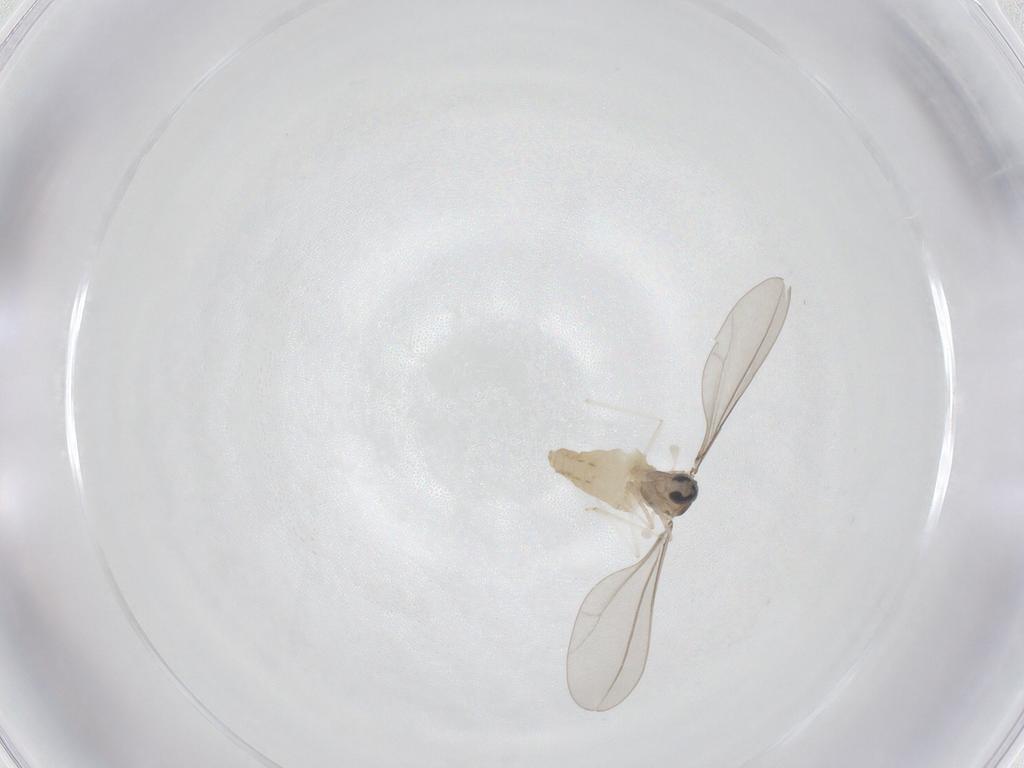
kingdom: Animalia
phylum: Arthropoda
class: Insecta
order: Diptera
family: Cecidomyiidae
